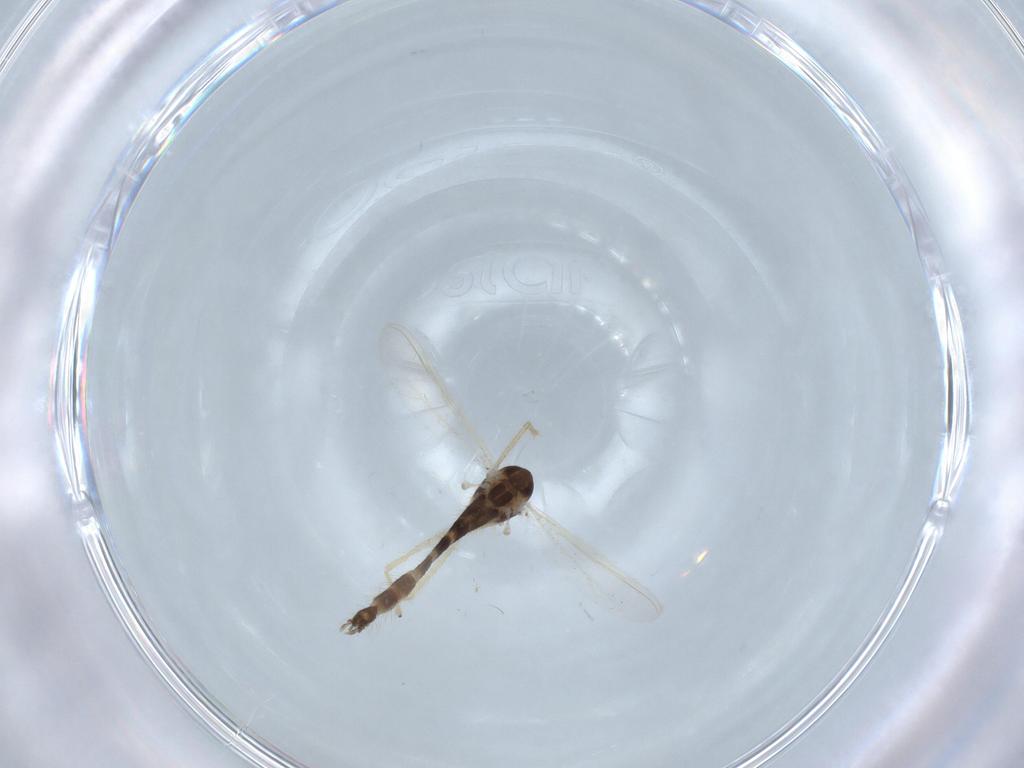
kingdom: Animalia
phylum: Arthropoda
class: Insecta
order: Diptera
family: Chironomidae
